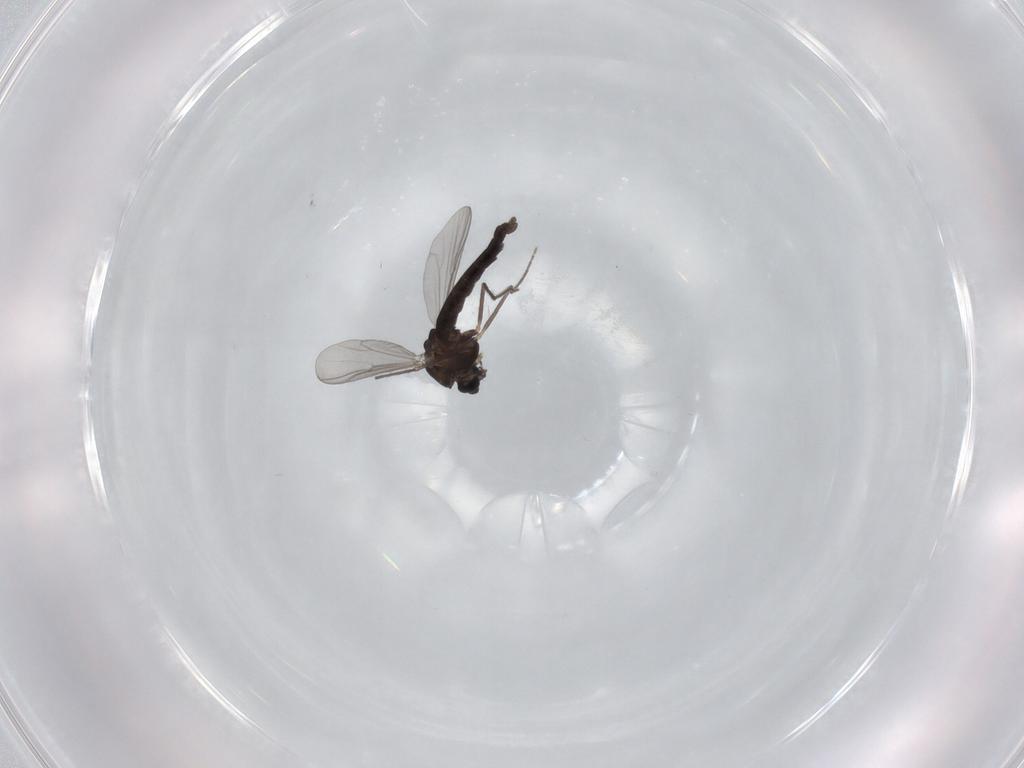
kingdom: Animalia
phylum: Arthropoda
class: Insecta
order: Diptera
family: Chironomidae
